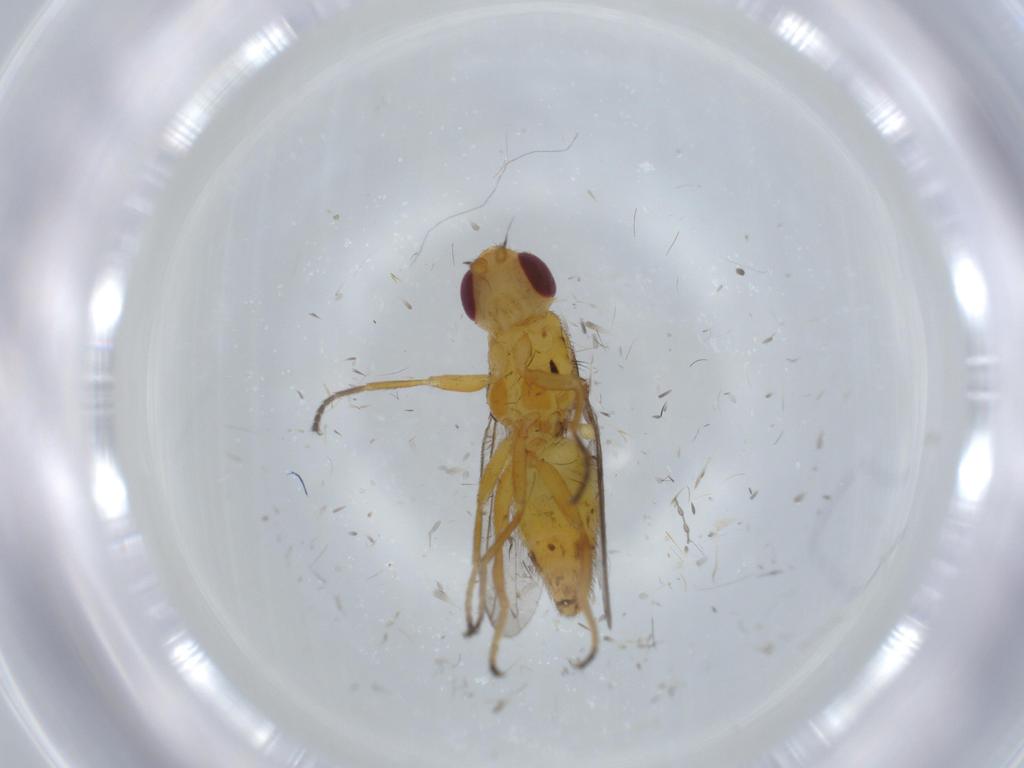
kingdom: Animalia
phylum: Arthropoda
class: Insecta
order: Diptera
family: Chloropidae
